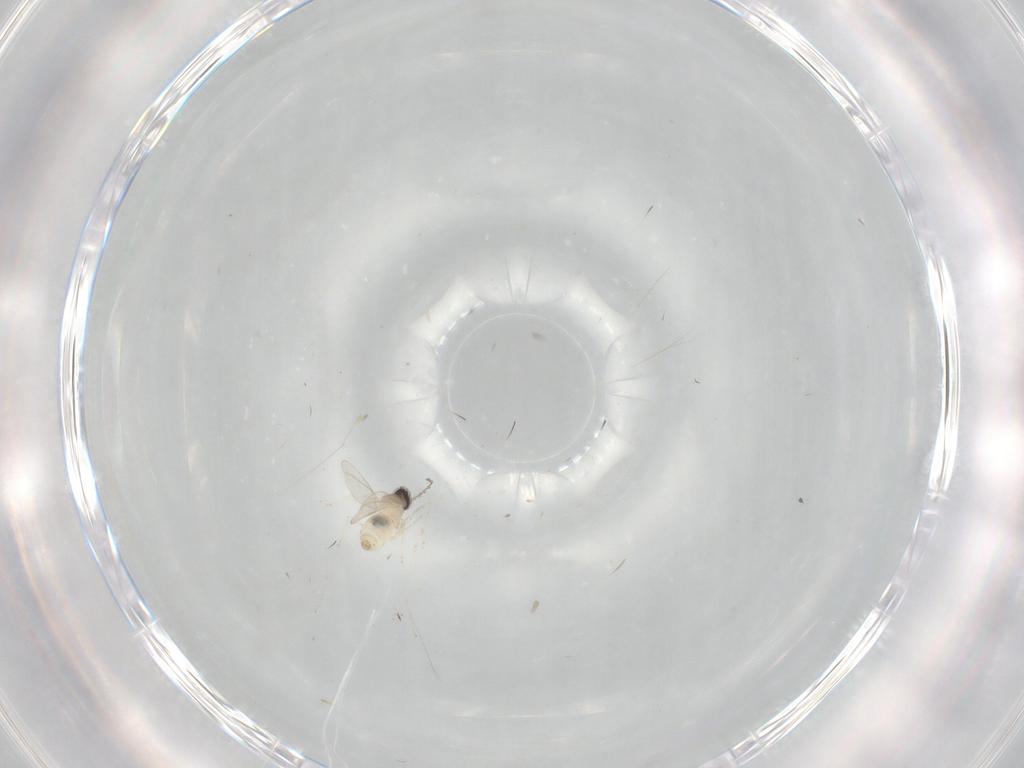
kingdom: Animalia
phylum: Arthropoda
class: Insecta
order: Diptera
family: Cecidomyiidae
